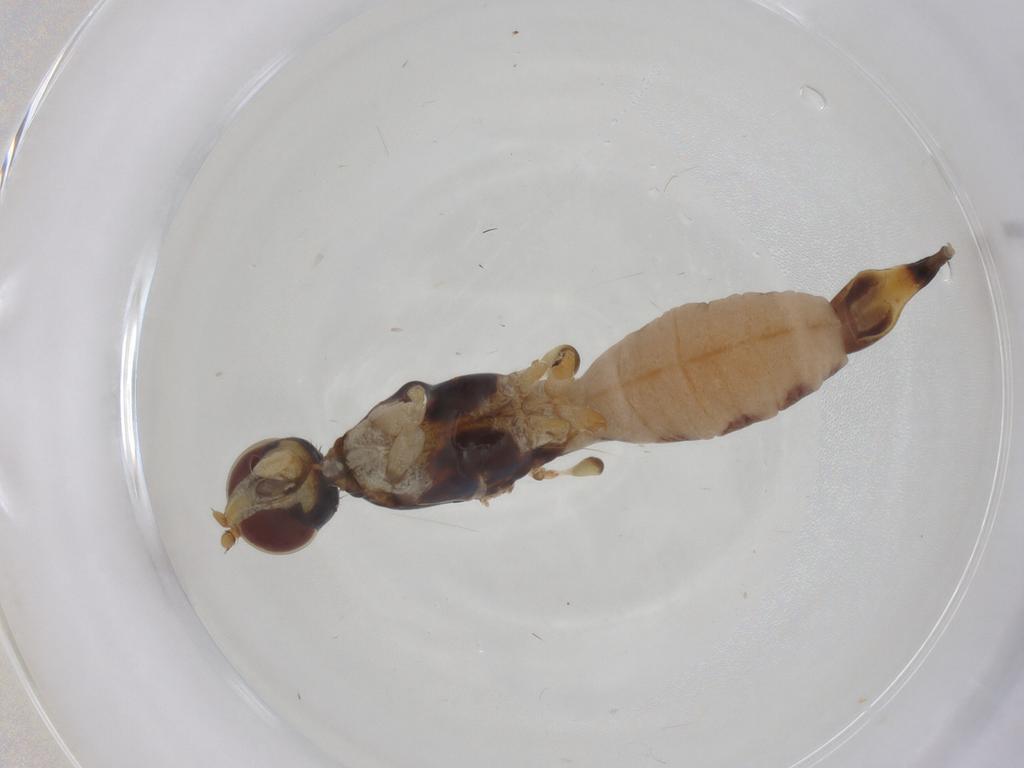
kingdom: Animalia
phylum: Arthropoda
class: Insecta
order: Diptera
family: Micropezidae
